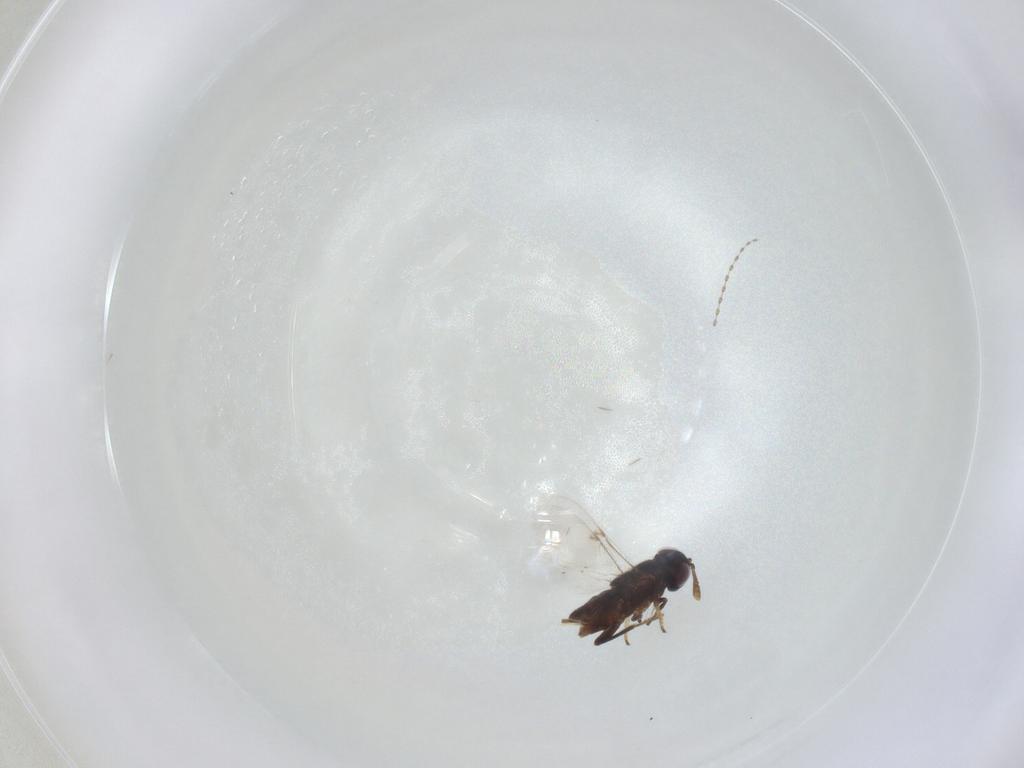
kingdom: Animalia
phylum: Arthropoda
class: Insecta
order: Diptera
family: Cecidomyiidae
